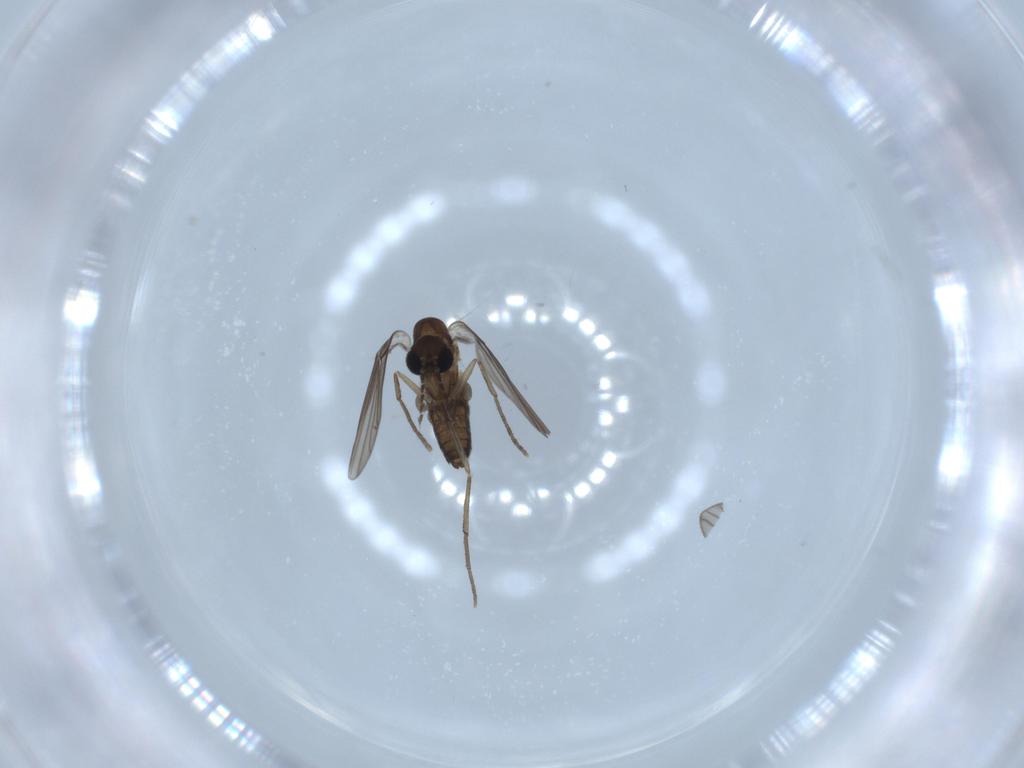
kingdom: Animalia
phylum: Arthropoda
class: Insecta
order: Diptera
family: Psychodidae
